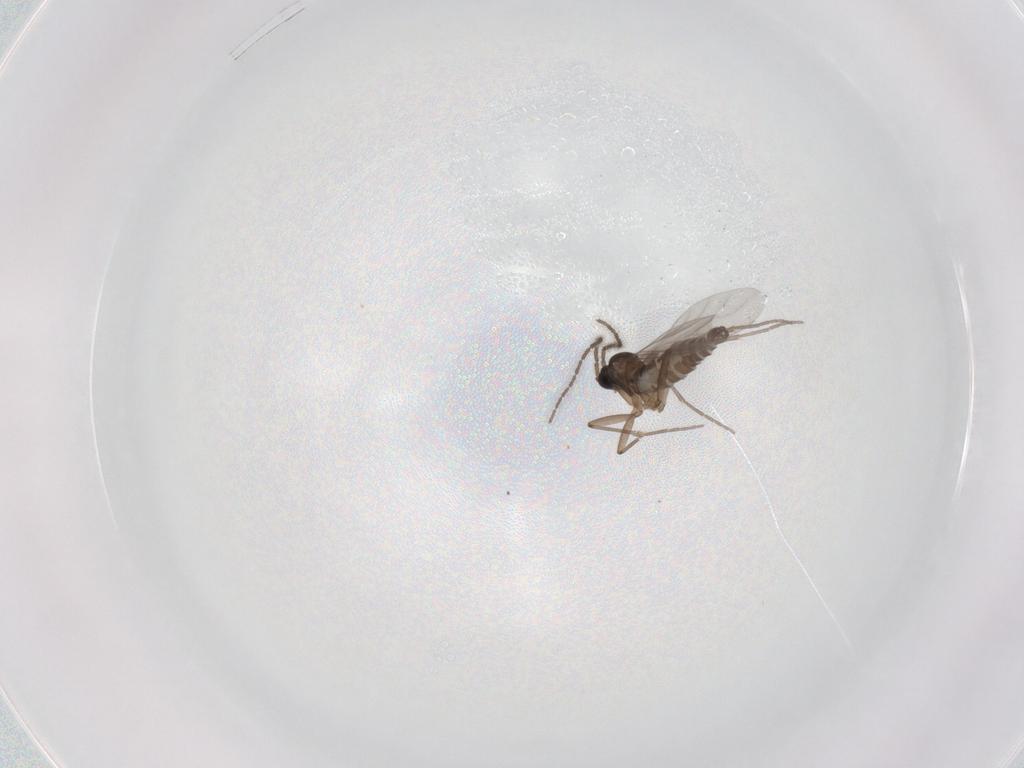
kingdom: Animalia
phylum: Arthropoda
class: Insecta
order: Diptera
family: Sciaridae
